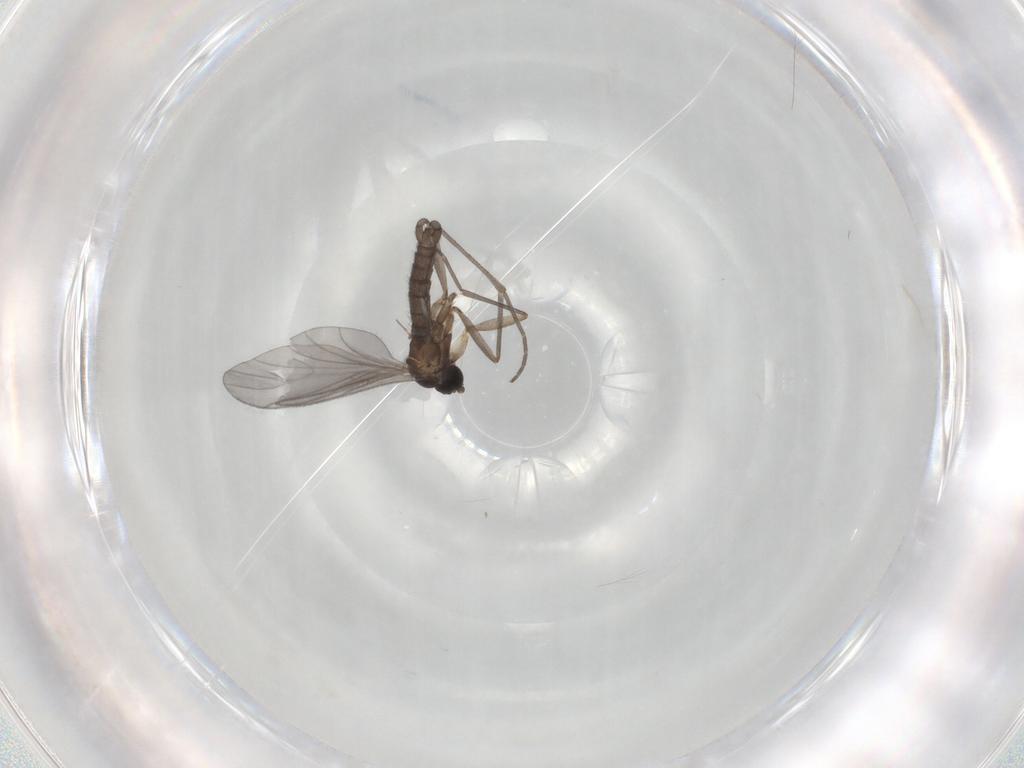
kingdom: Animalia
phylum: Arthropoda
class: Insecta
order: Diptera
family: Sciaridae
